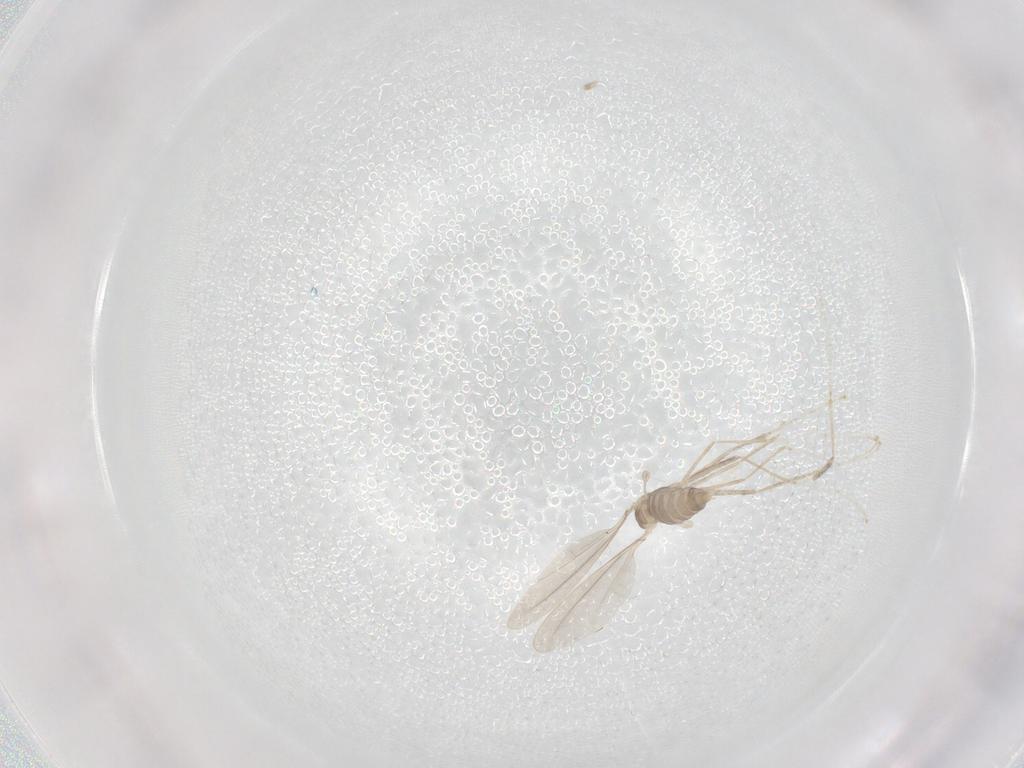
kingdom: Animalia
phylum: Arthropoda
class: Insecta
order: Diptera
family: Cecidomyiidae
